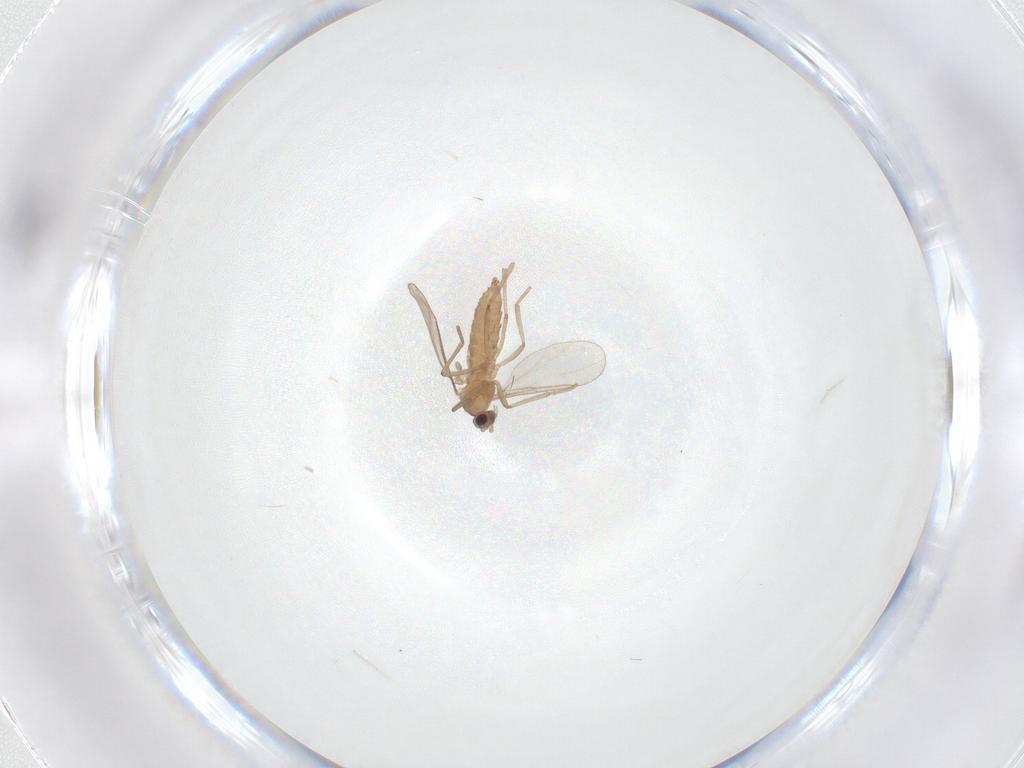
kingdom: Animalia
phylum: Arthropoda
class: Insecta
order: Diptera
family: Cecidomyiidae
